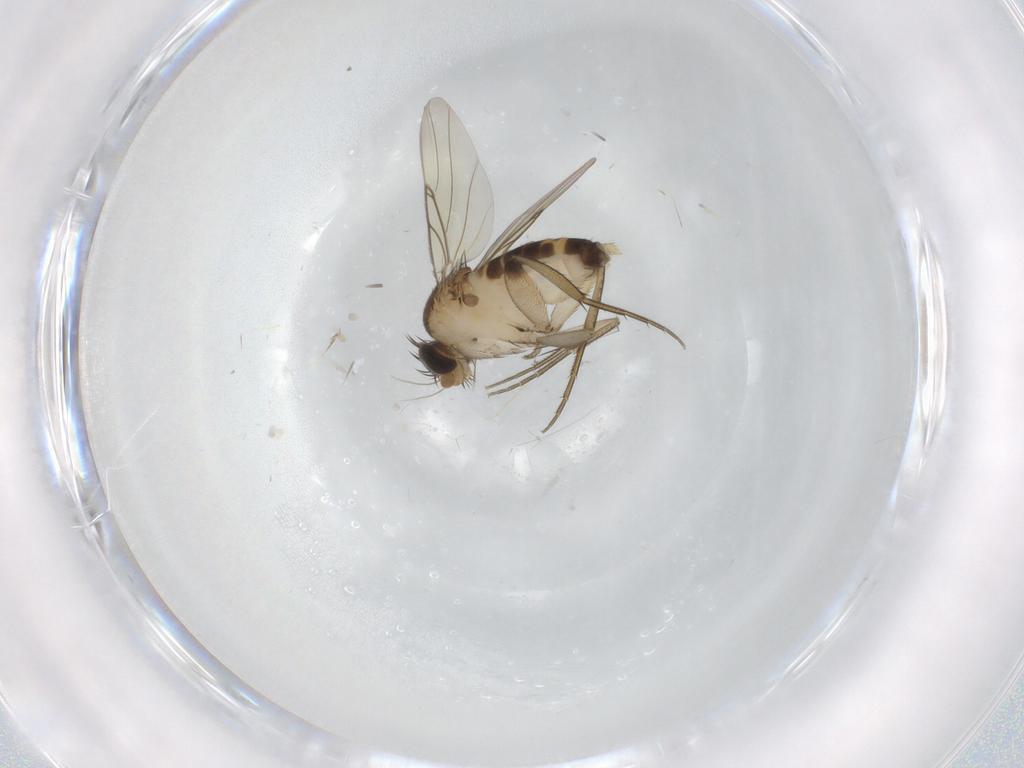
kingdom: Animalia
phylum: Arthropoda
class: Insecta
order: Diptera
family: Phoridae
